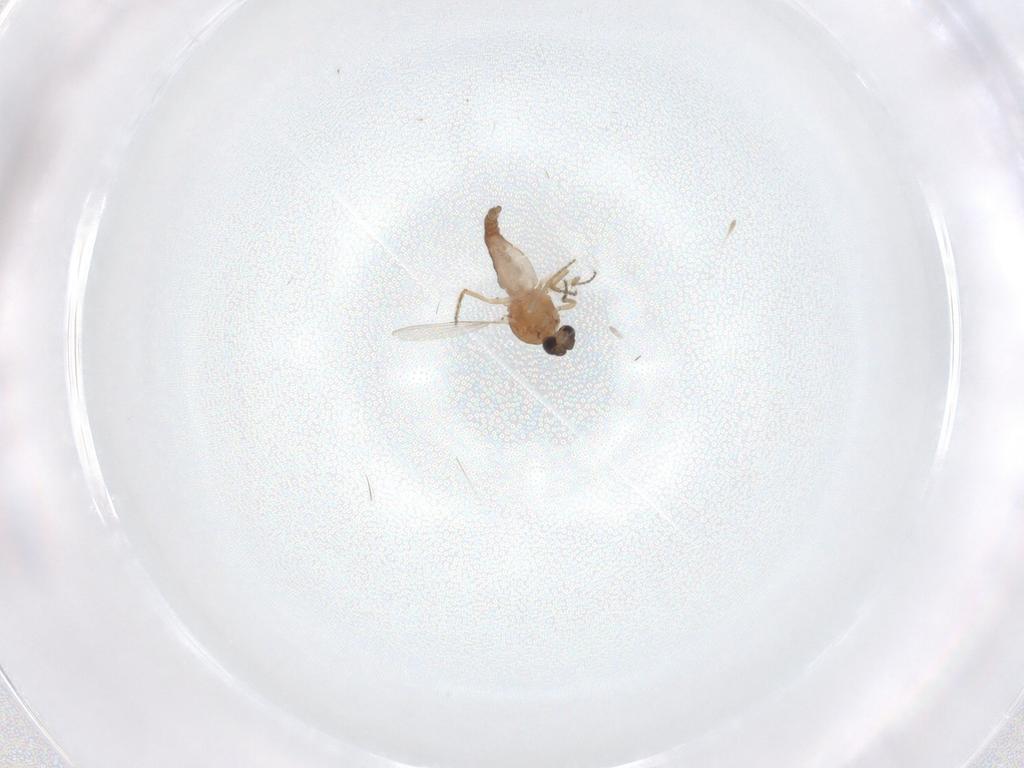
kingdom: Animalia
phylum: Arthropoda
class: Insecta
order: Diptera
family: Ceratopogonidae
